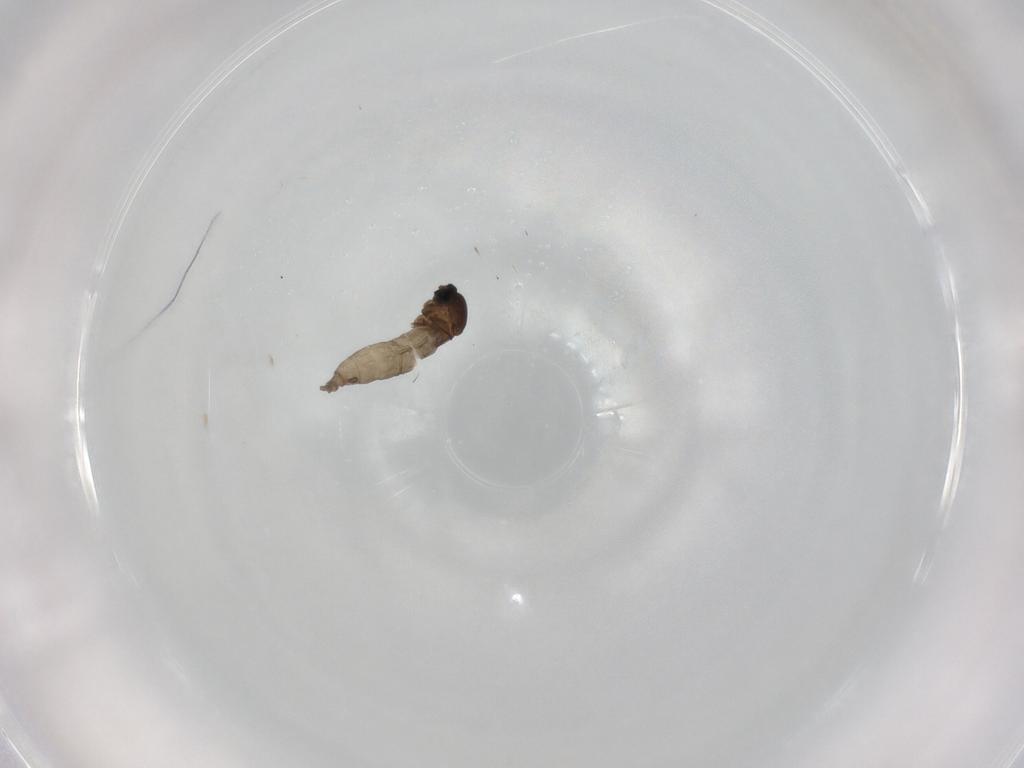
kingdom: Animalia
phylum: Arthropoda
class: Insecta
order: Diptera
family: Cecidomyiidae
